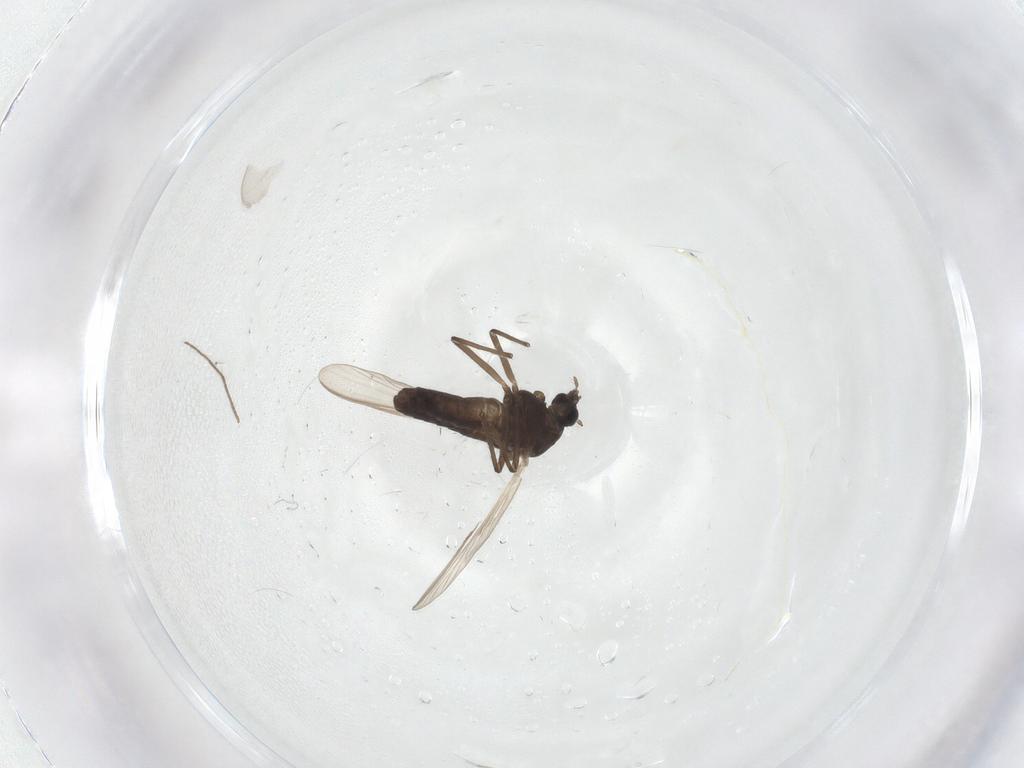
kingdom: Animalia
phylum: Arthropoda
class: Insecta
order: Diptera
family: Chironomidae
